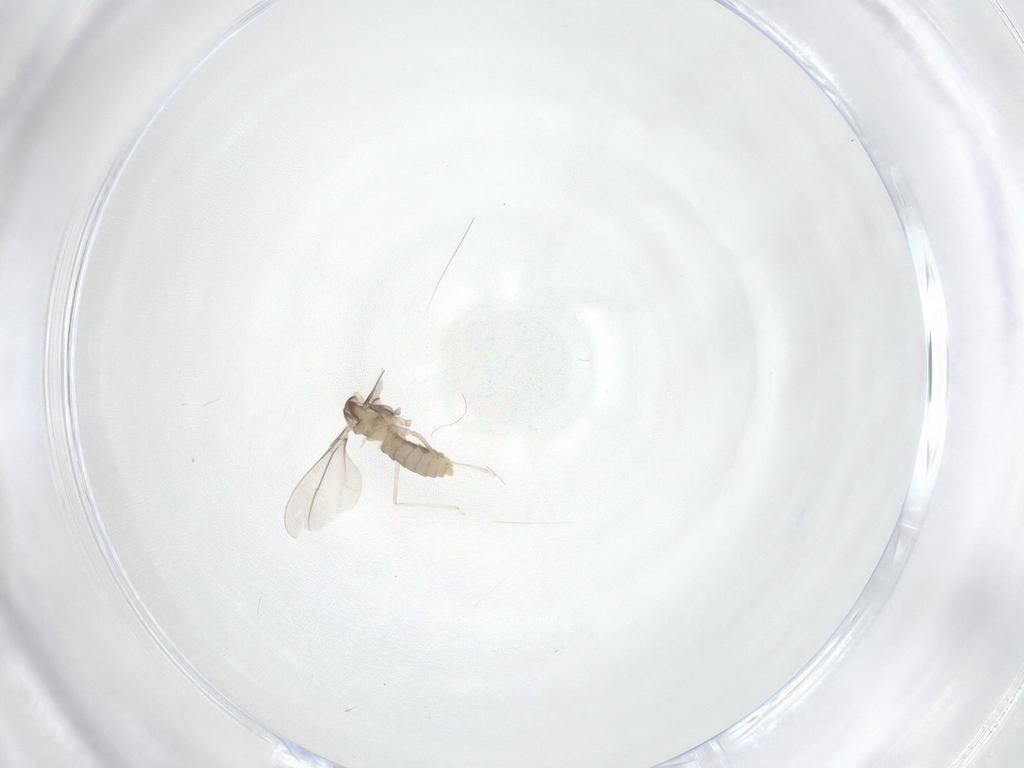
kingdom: Animalia
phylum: Arthropoda
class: Insecta
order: Diptera
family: Cecidomyiidae
